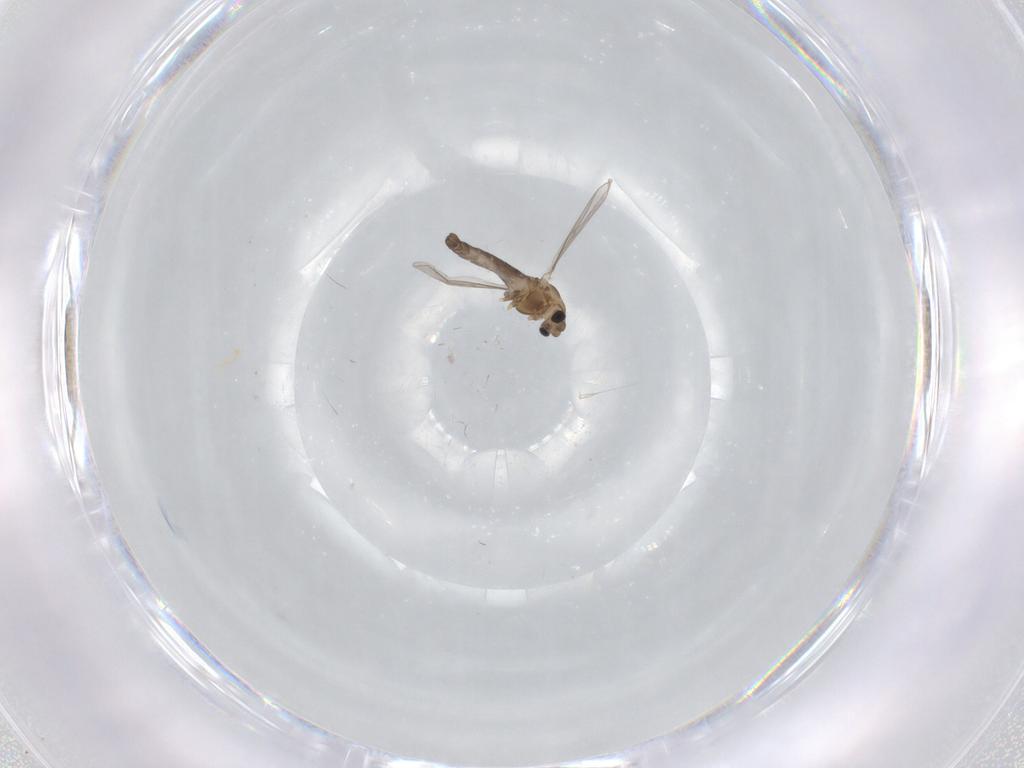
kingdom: Animalia
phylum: Arthropoda
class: Insecta
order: Diptera
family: Chironomidae
